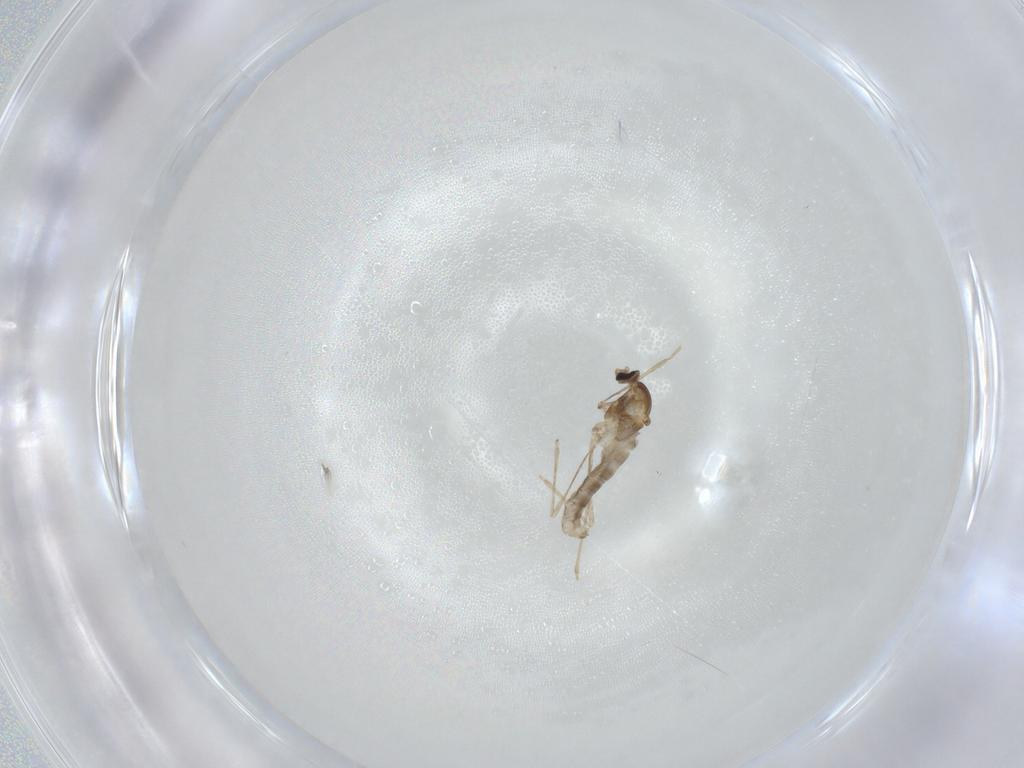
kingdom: Animalia
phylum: Arthropoda
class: Insecta
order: Diptera
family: Cecidomyiidae
